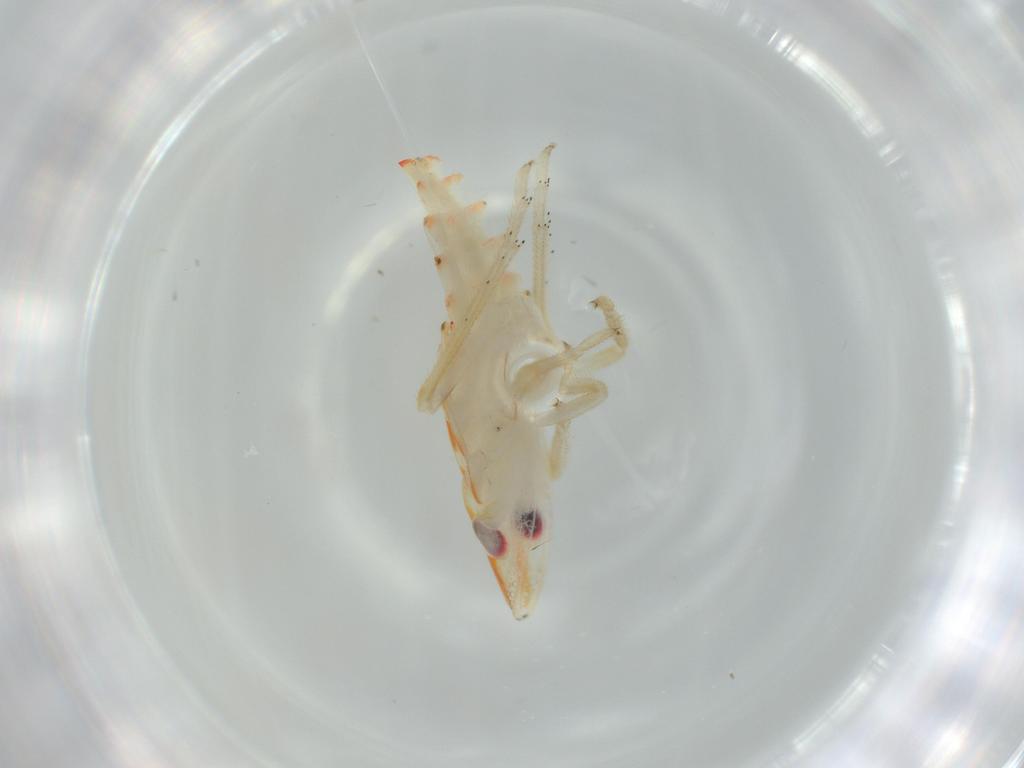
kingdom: Animalia
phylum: Arthropoda
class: Insecta
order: Hemiptera
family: Tropiduchidae
